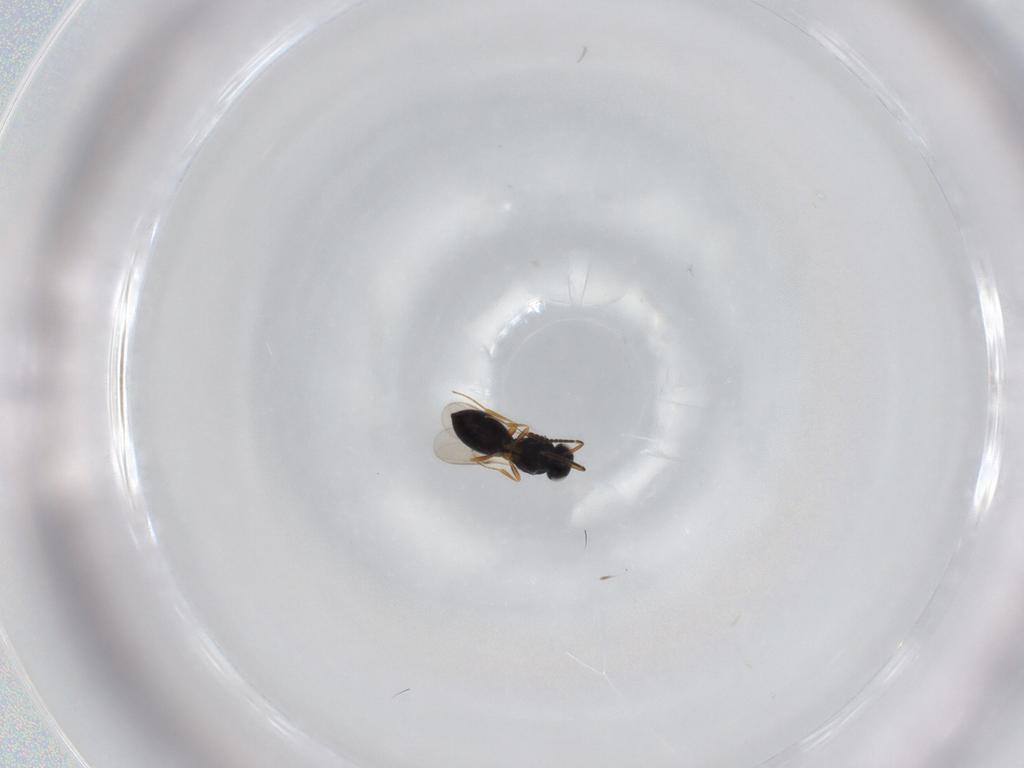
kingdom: Animalia
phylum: Arthropoda
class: Insecta
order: Hymenoptera
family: Scelionidae
